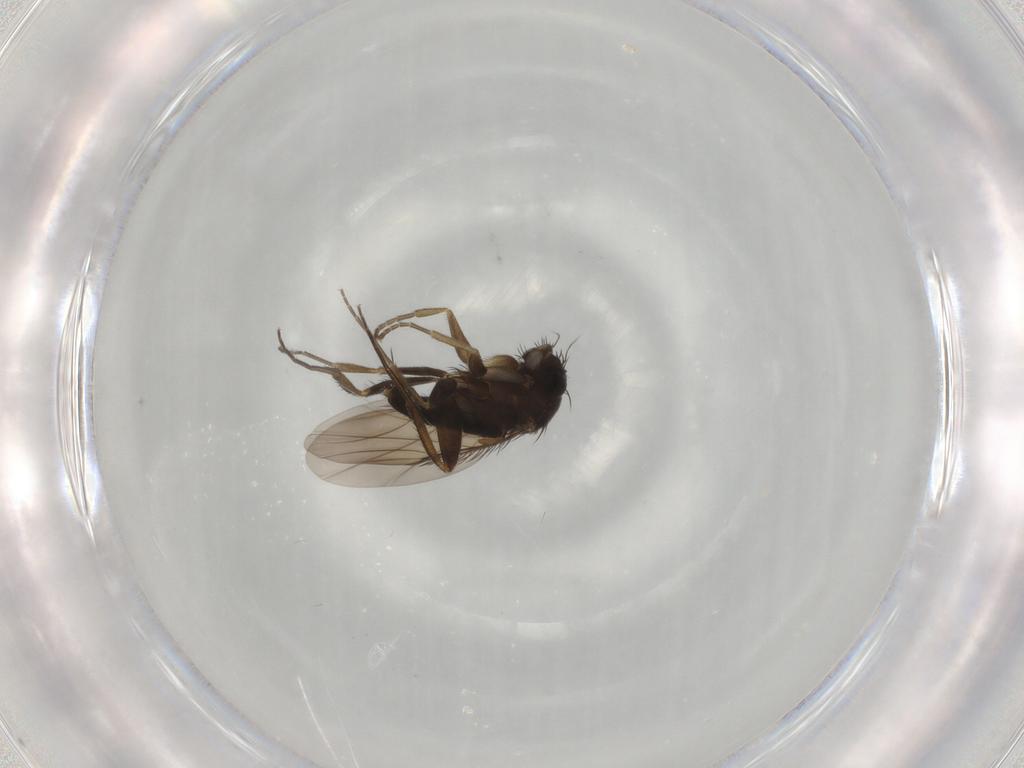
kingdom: Animalia
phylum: Arthropoda
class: Insecta
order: Diptera
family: Phoridae
